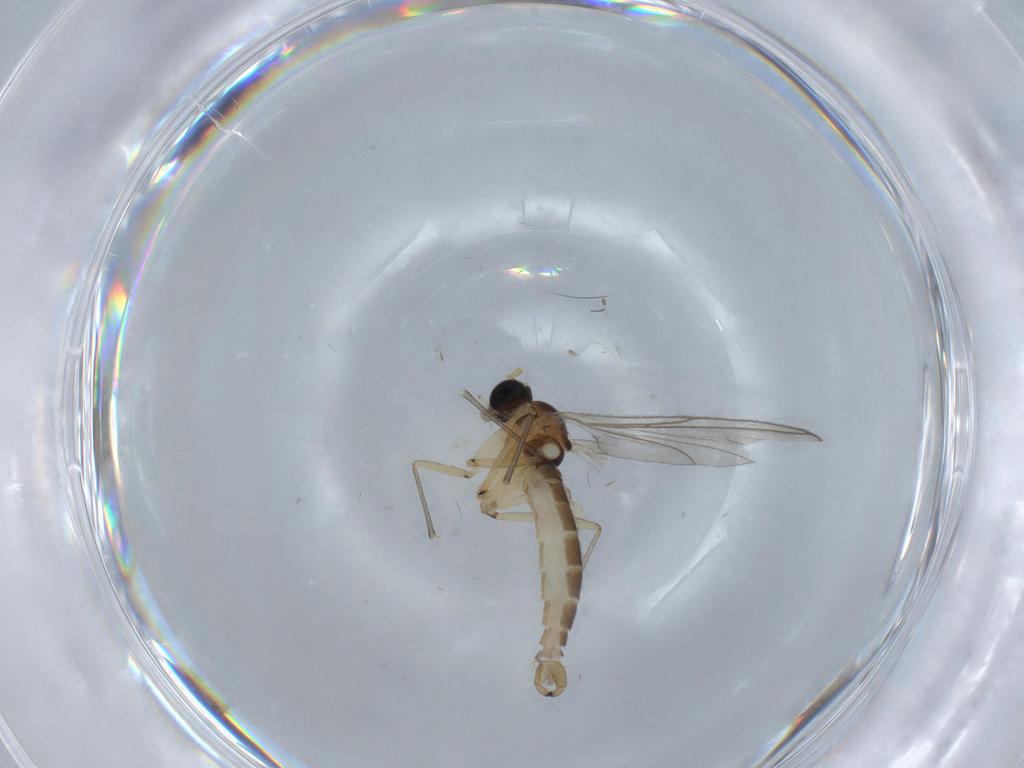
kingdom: Animalia
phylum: Arthropoda
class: Insecta
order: Diptera
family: Sciaridae
